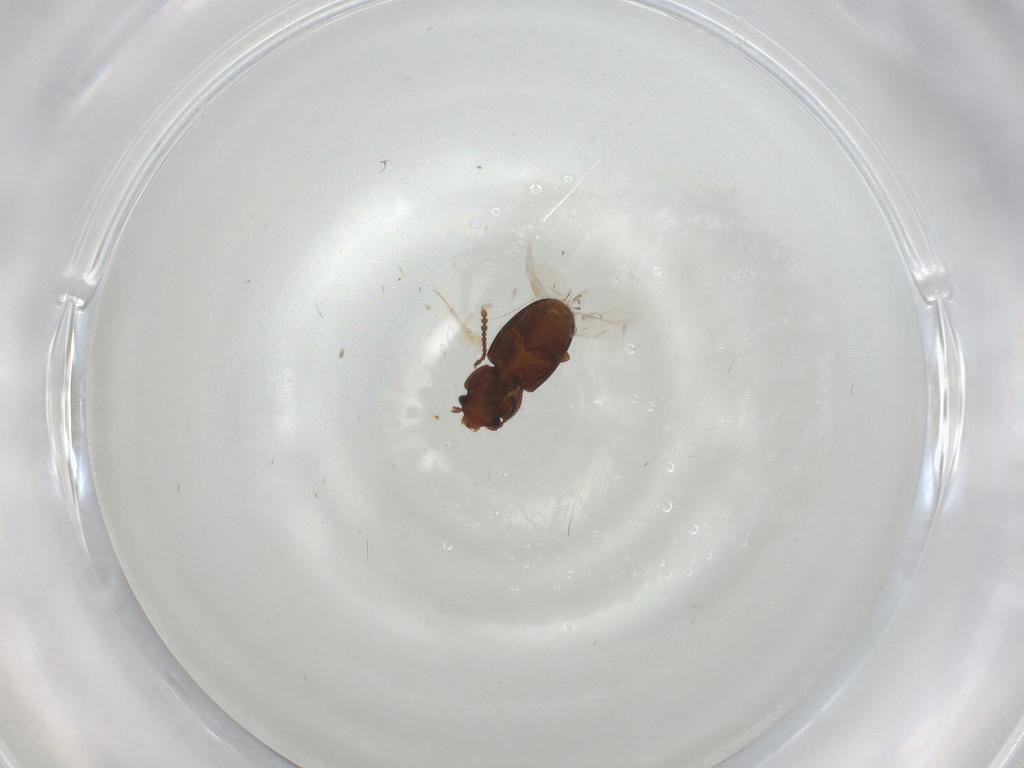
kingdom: Animalia
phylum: Arthropoda
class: Insecta
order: Coleoptera
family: Laemophloeidae
